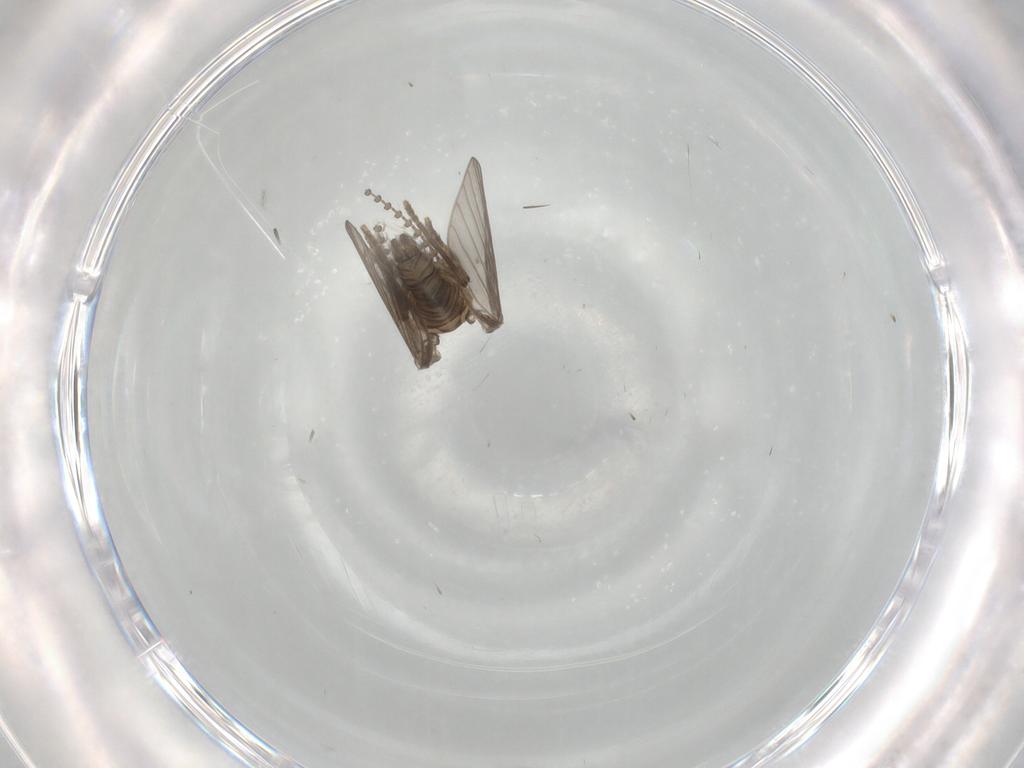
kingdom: Animalia
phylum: Arthropoda
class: Insecta
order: Diptera
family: Psychodidae
